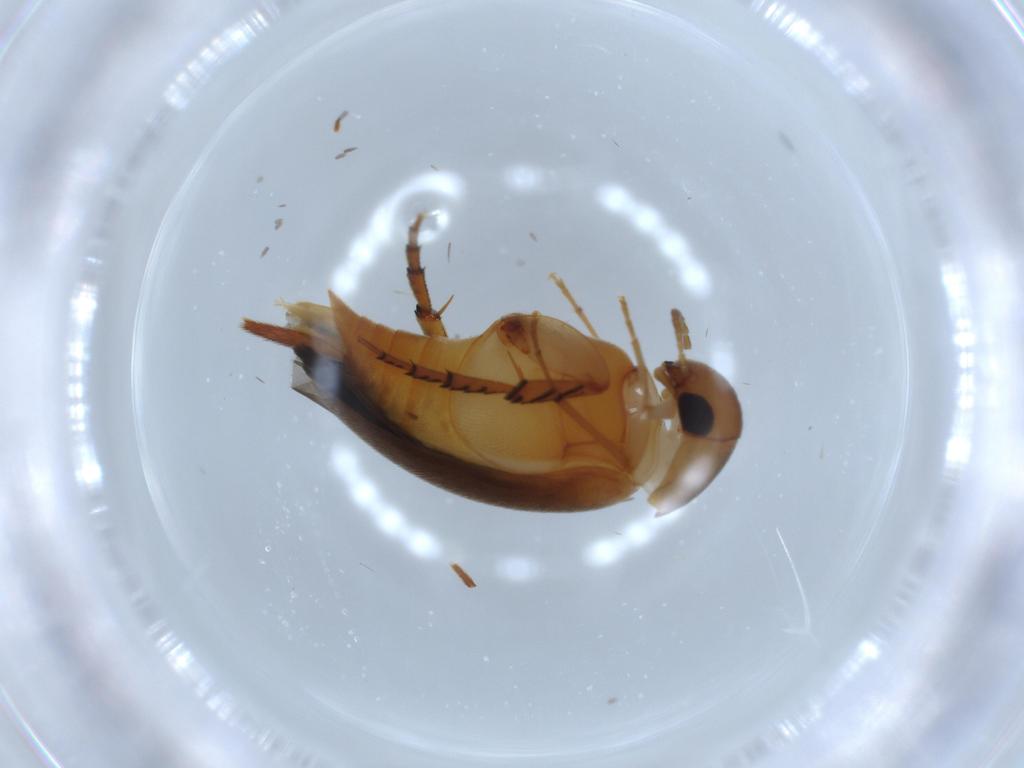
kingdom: Animalia
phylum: Arthropoda
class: Insecta
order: Coleoptera
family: Mordellidae
